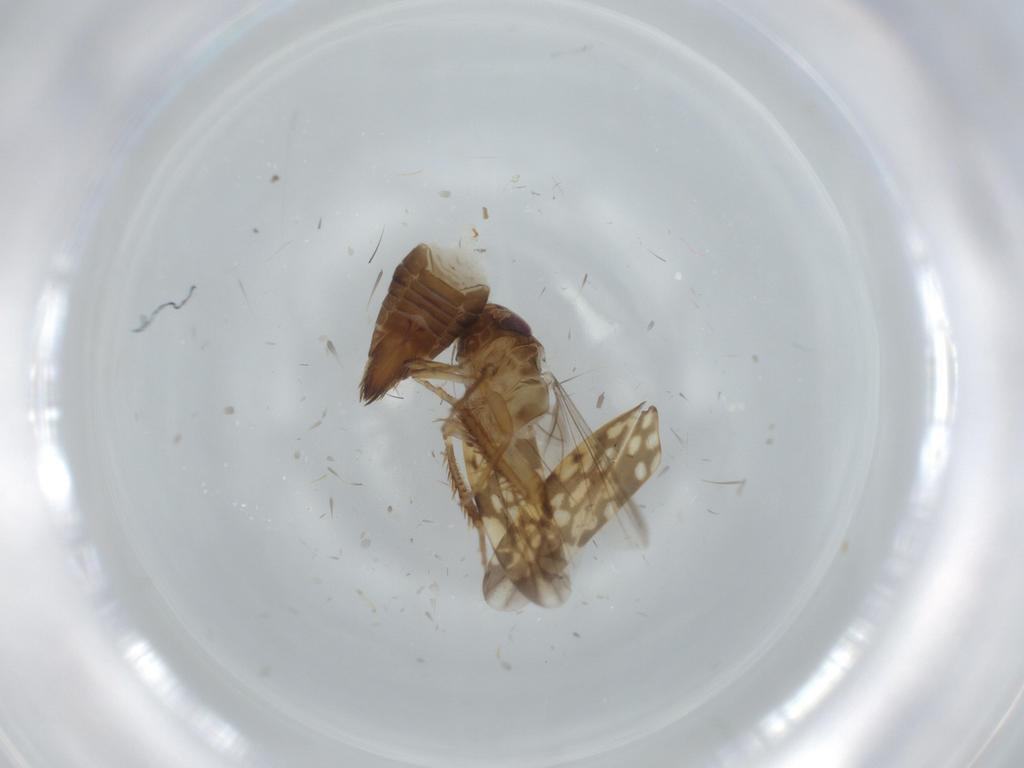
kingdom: Animalia
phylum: Arthropoda
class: Insecta
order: Hemiptera
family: Cicadellidae
